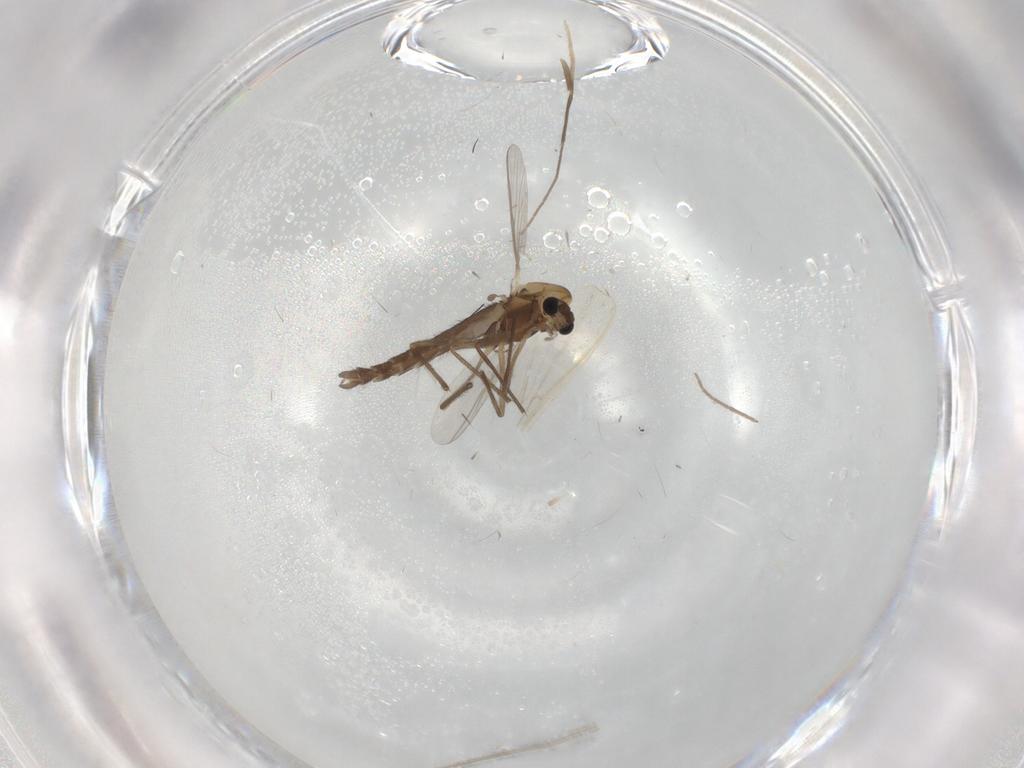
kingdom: Animalia
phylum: Arthropoda
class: Insecta
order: Diptera
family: Chironomidae
